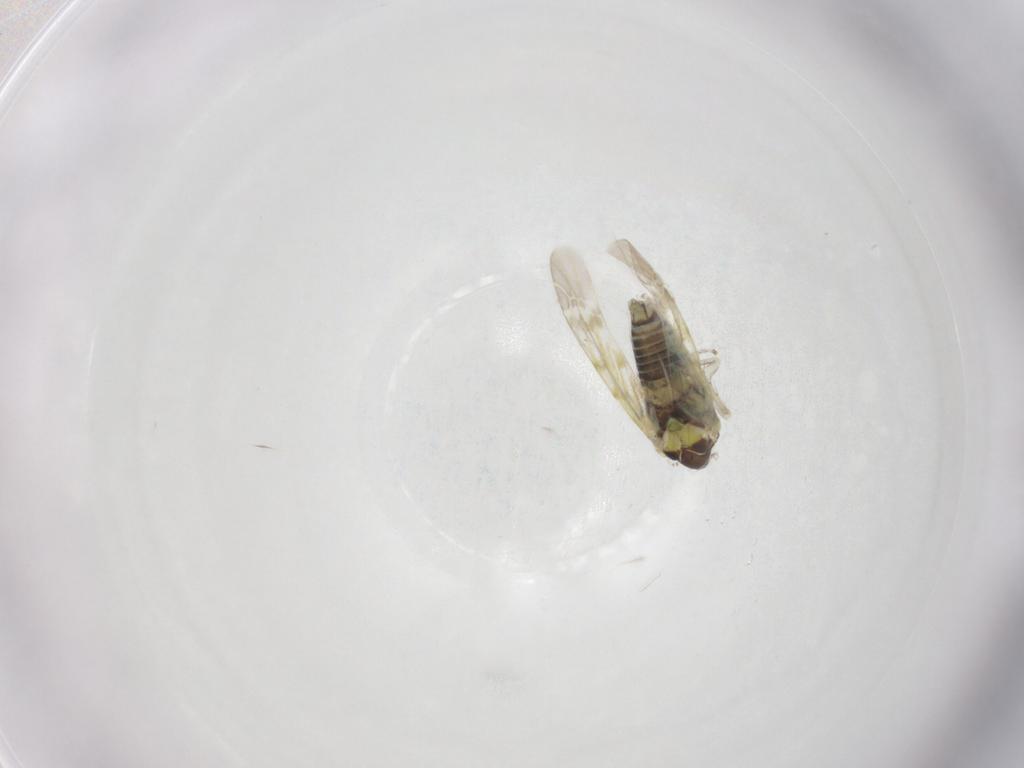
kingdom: Animalia
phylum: Arthropoda
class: Insecta
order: Hemiptera
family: Cicadellidae
